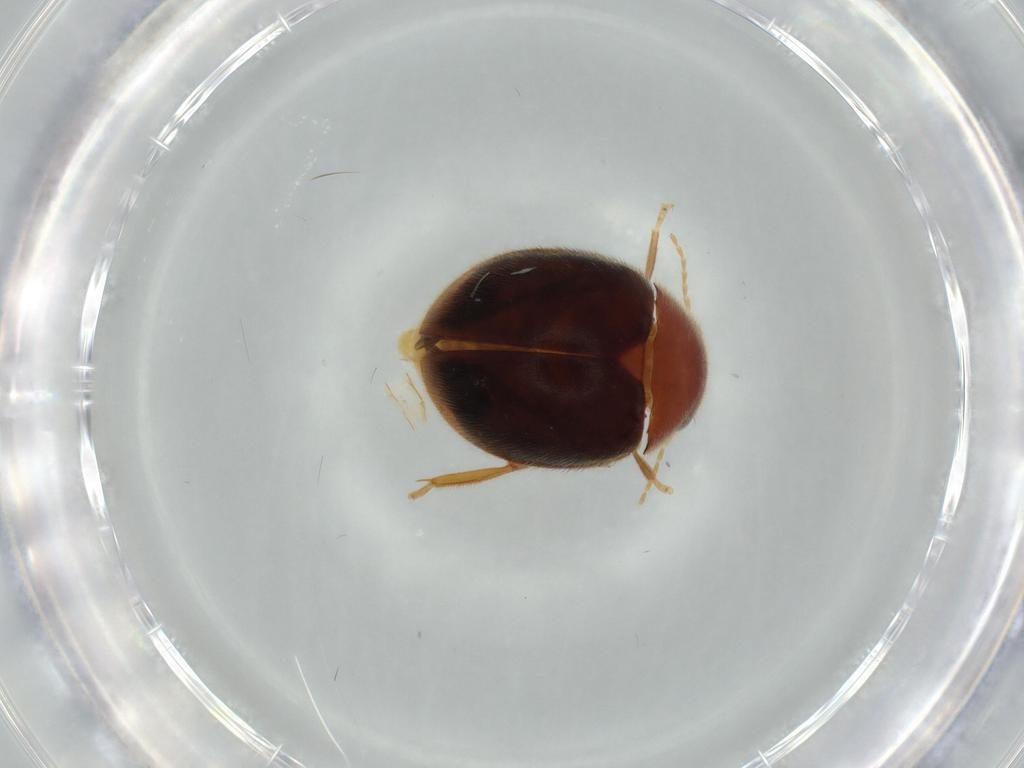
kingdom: Animalia
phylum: Arthropoda
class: Insecta
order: Coleoptera
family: Scirtidae
